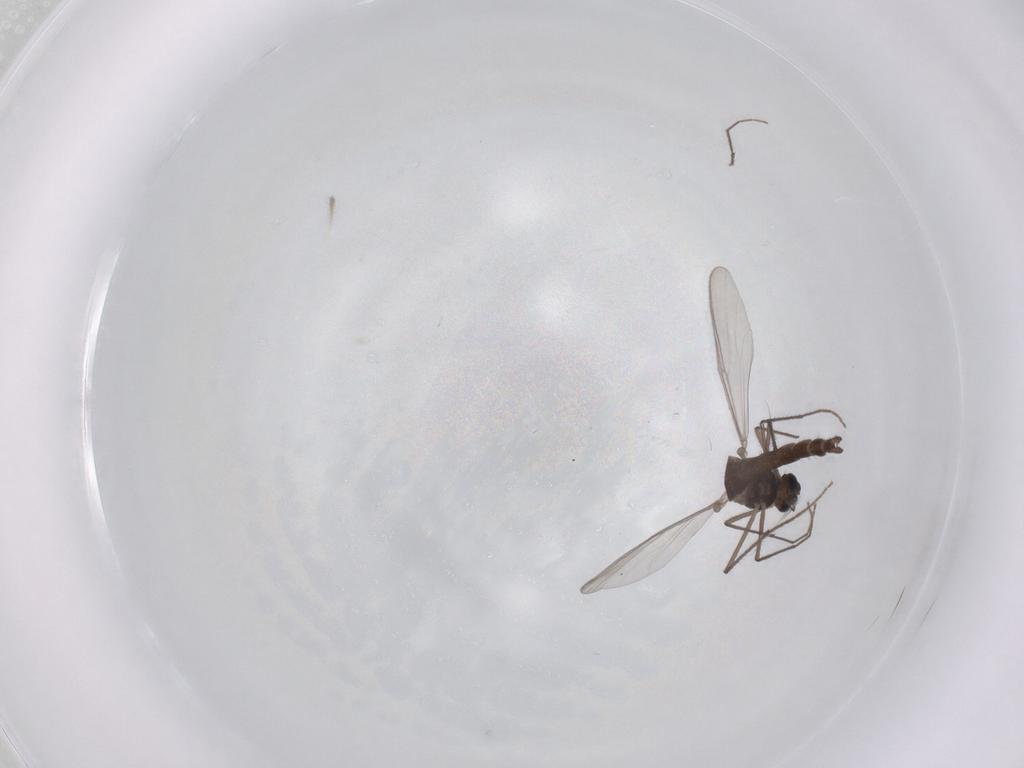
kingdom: Animalia
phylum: Arthropoda
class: Insecta
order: Diptera
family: Chironomidae
